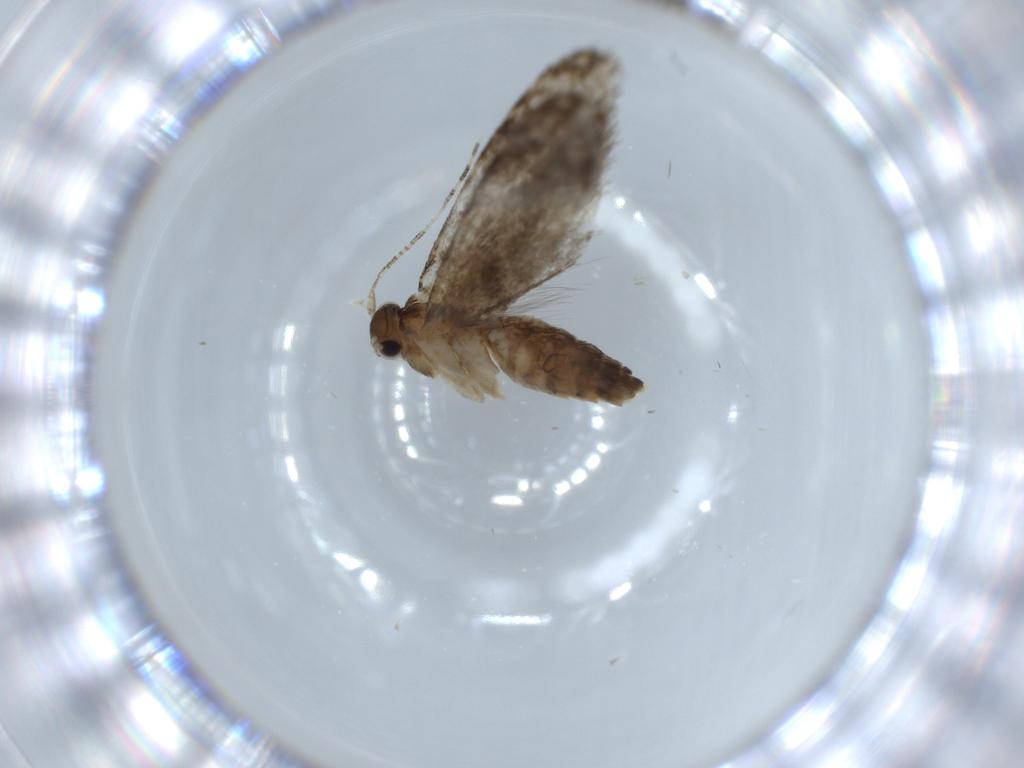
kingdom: Animalia
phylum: Arthropoda
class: Insecta
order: Lepidoptera
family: Tineidae
